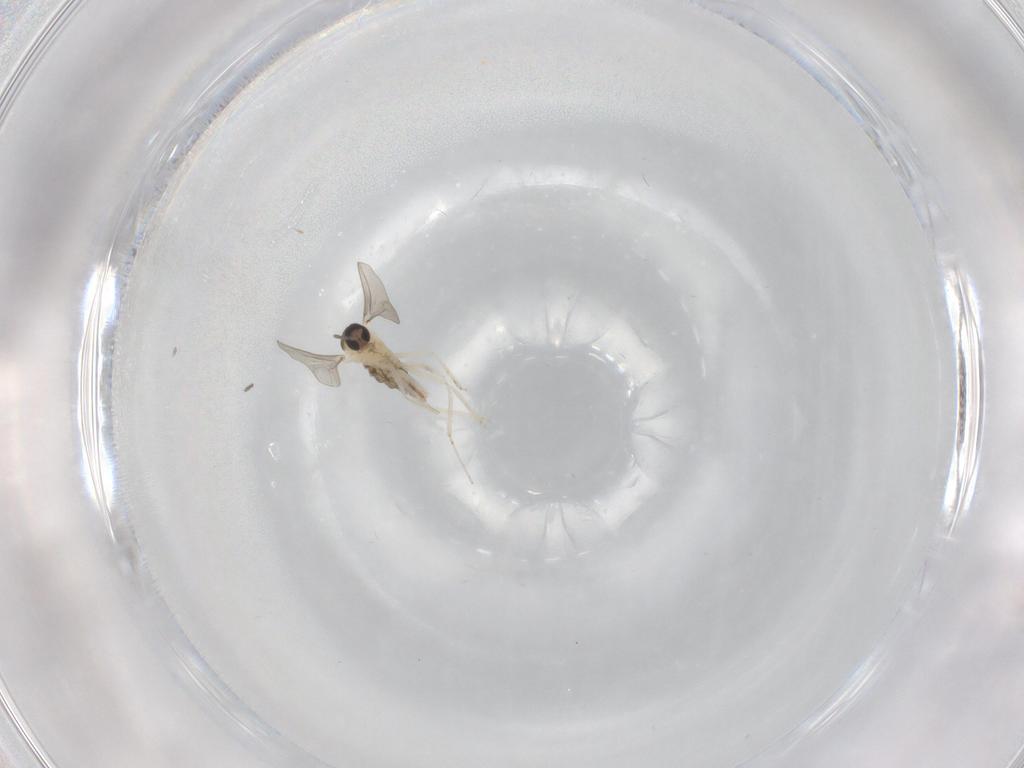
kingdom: Animalia
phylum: Arthropoda
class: Insecta
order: Diptera
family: Cecidomyiidae
